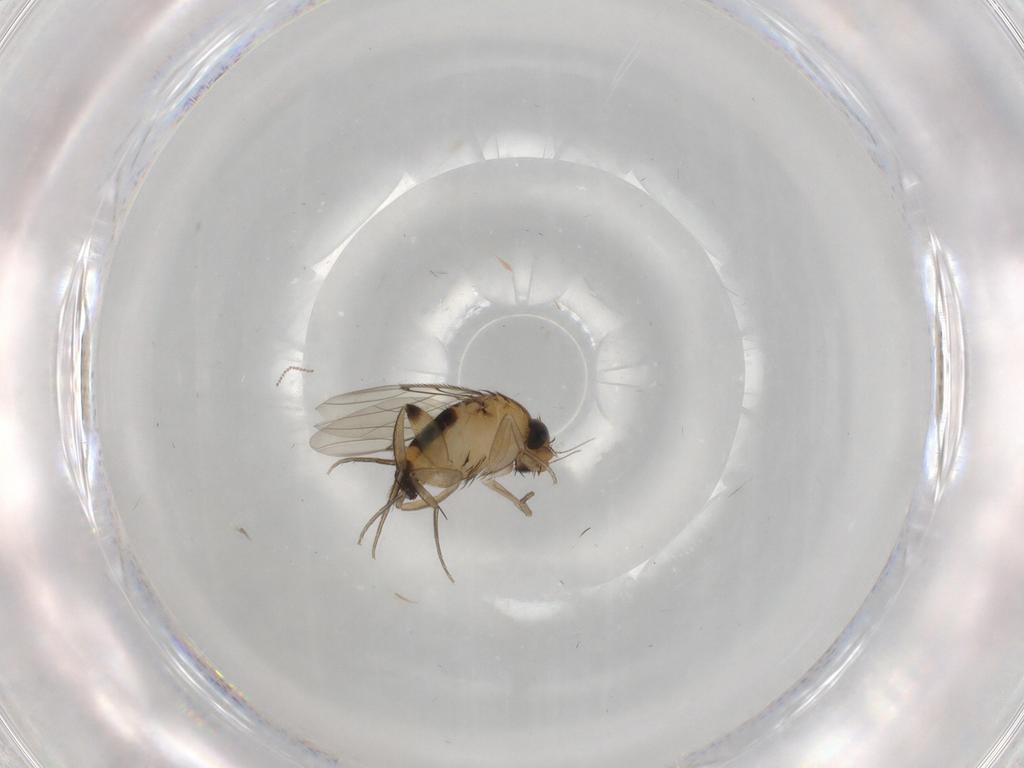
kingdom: Animalia
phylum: Arthropoda
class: Insecta
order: Diptera
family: Phoridae
